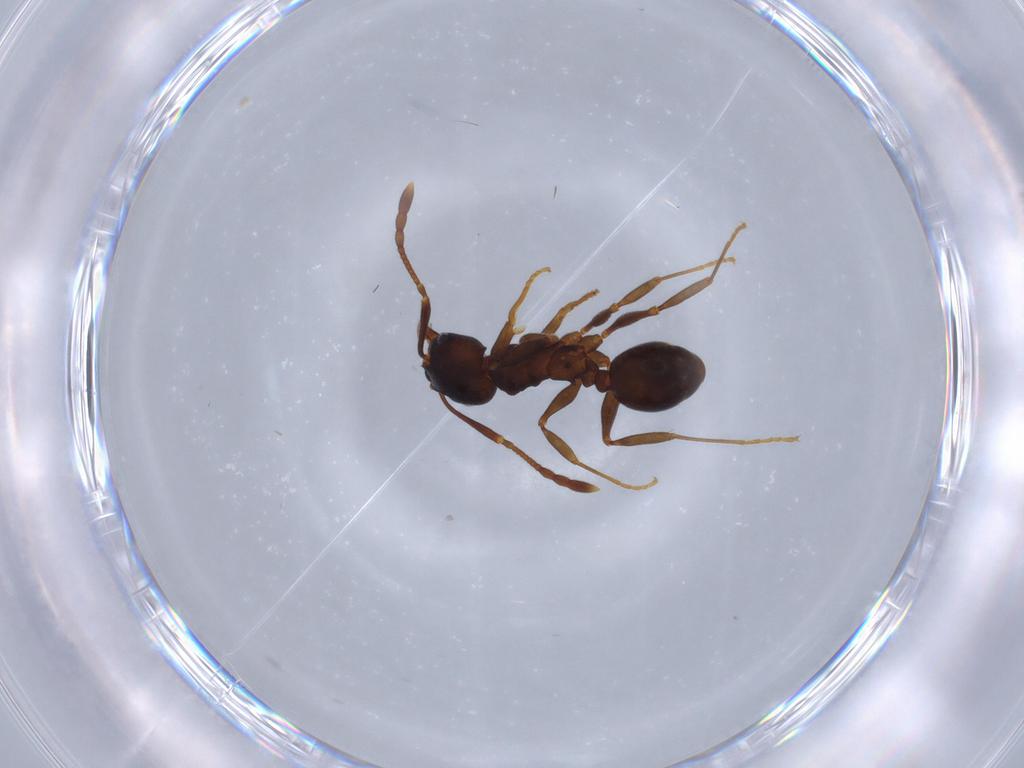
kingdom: Animalia
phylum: Arthropoda
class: Insecta
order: Hymenoptera
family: Formicidae
